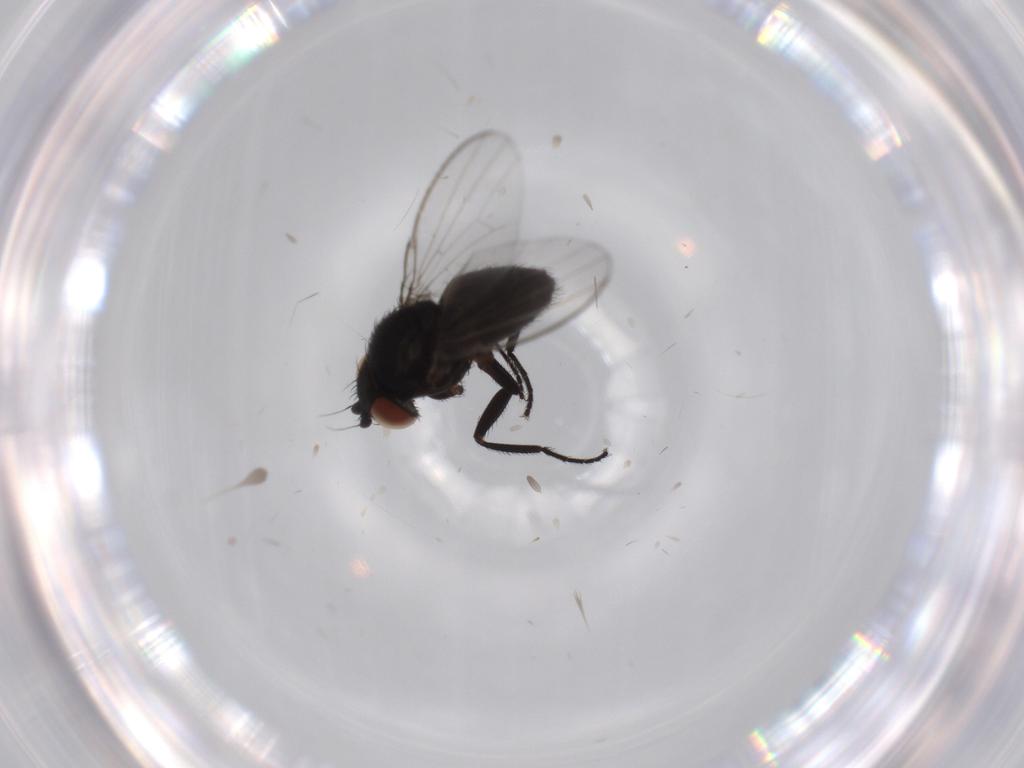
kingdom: Animalia
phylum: Arthropoda
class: Insecta
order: Diptera
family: Milichiidae
